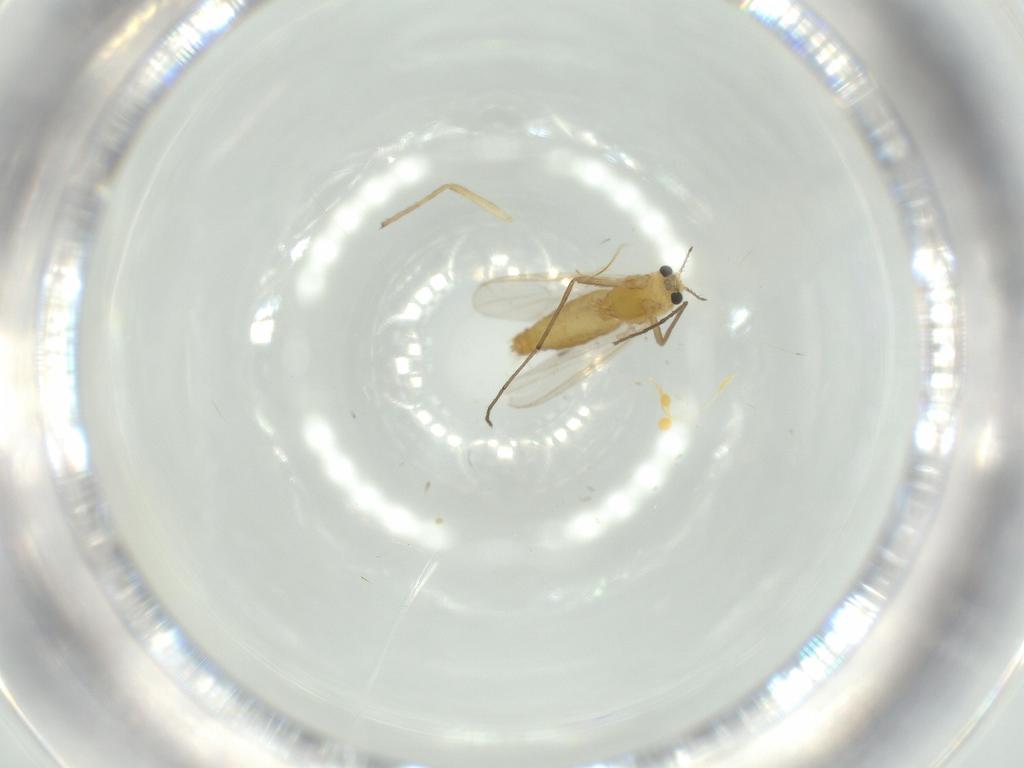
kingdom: Animalia
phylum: Arthropoda
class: Insecta
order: Diptera
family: Chironomidae
